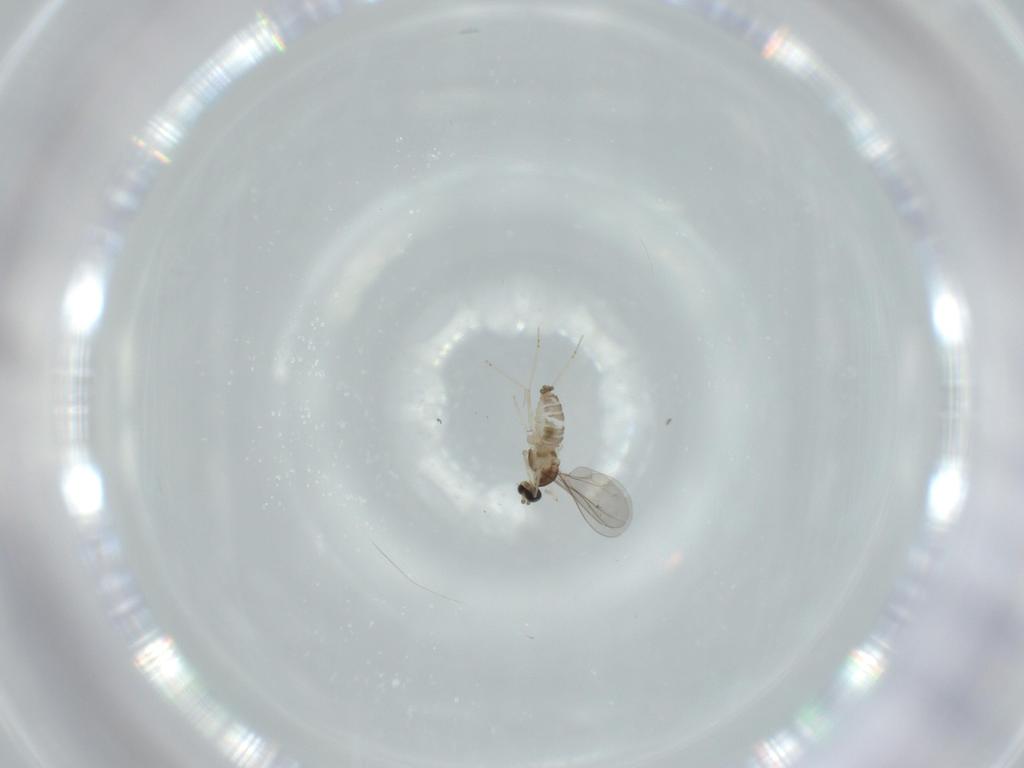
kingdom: Animalia
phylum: Arthropoda
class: Insecta
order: Diptera
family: Cecidomyiidae
